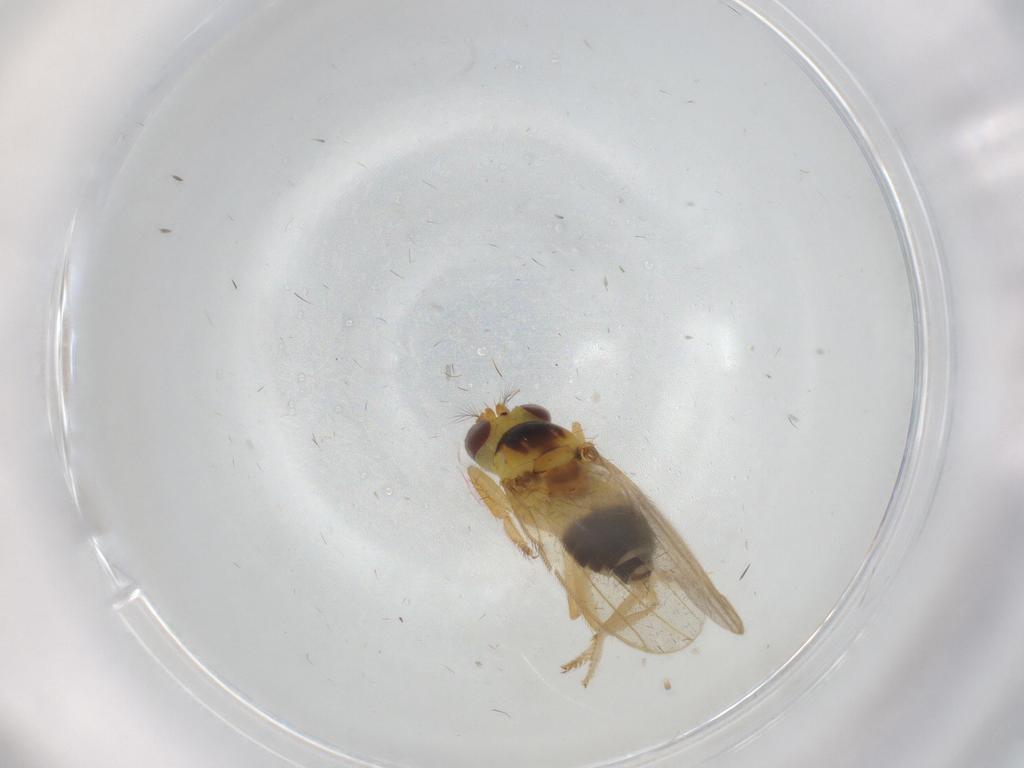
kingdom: Animalia
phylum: Arthropoda
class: Insecta
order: Diptera
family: Periscelididae
